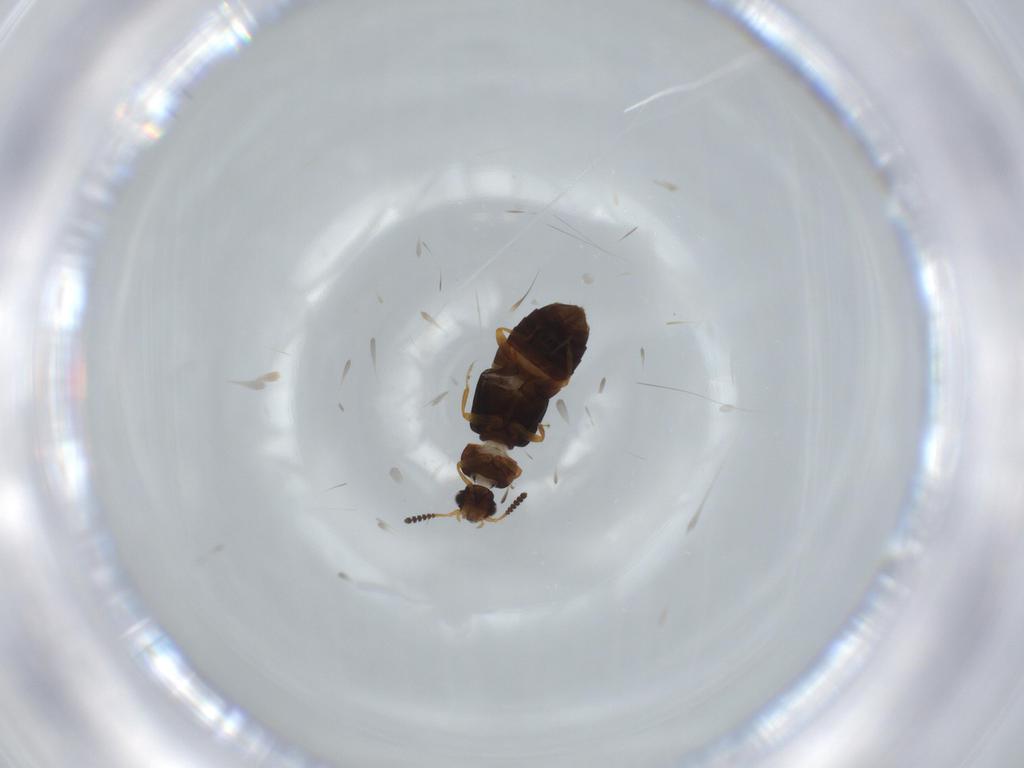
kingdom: Animalia
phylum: Arthropoda
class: Insecta
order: Coleoptera
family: Staphylinidae
